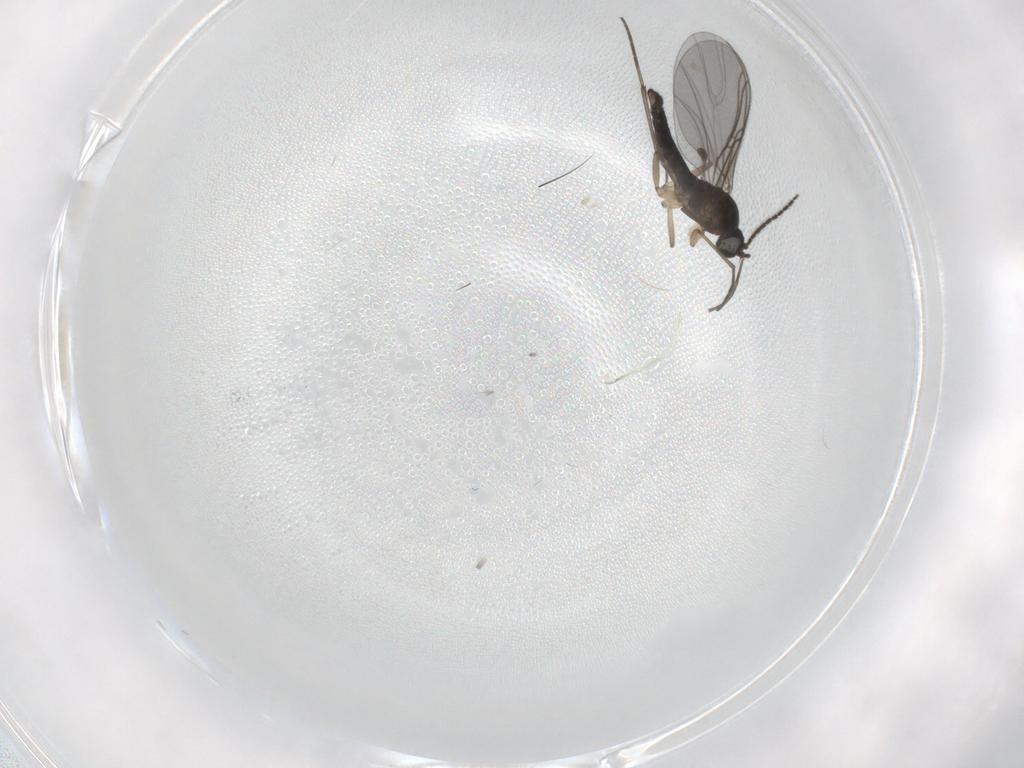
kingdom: Animalia
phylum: Arthropoda
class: Insecta
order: Diptera
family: Sciaridae
